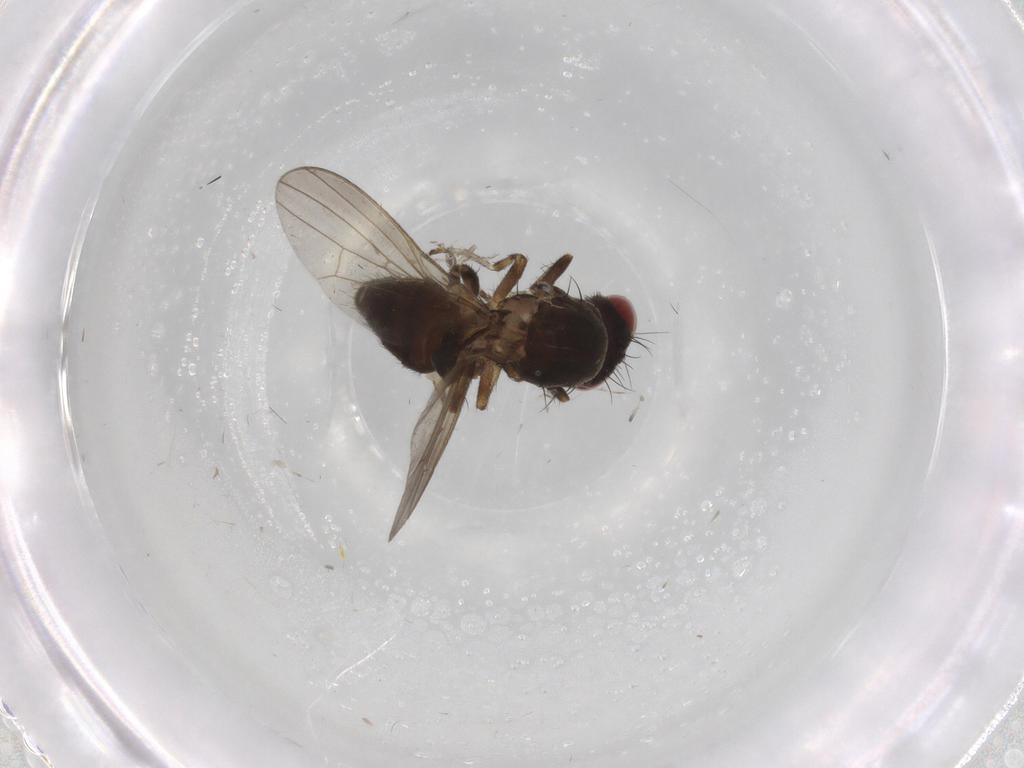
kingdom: Animalia
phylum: Arthropoda
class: Insecta
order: Diptera
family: Heleomyzidae
